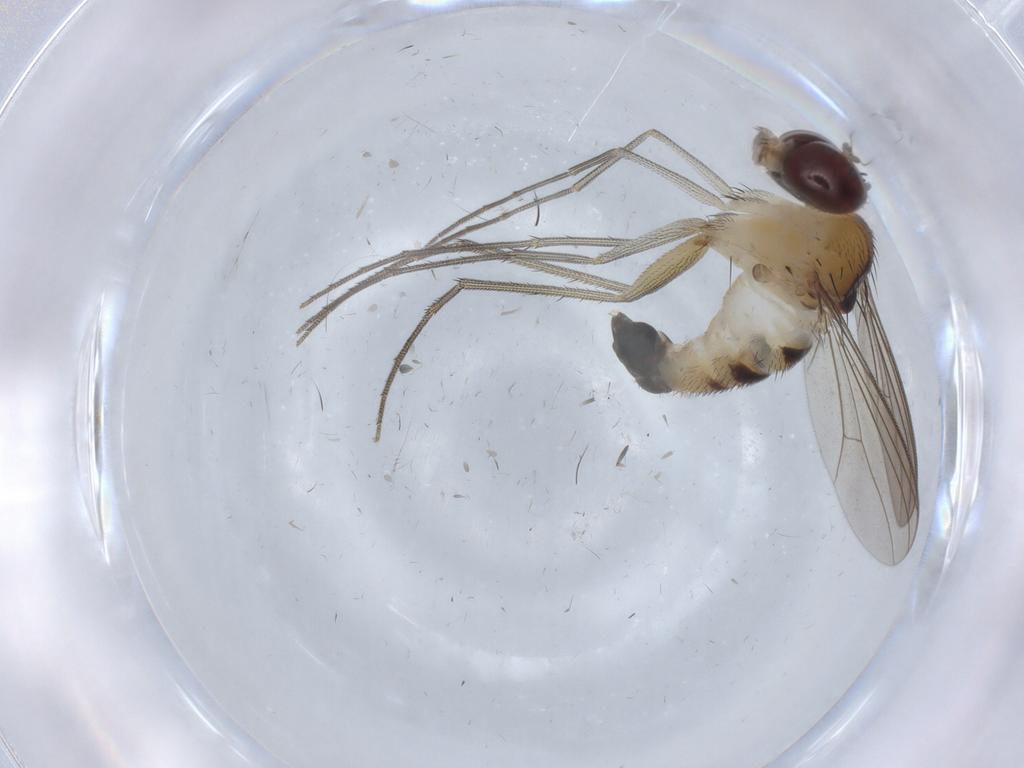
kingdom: Animalia
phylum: Arthropoda
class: Insecta
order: Diptera
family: Dolichopodidae
